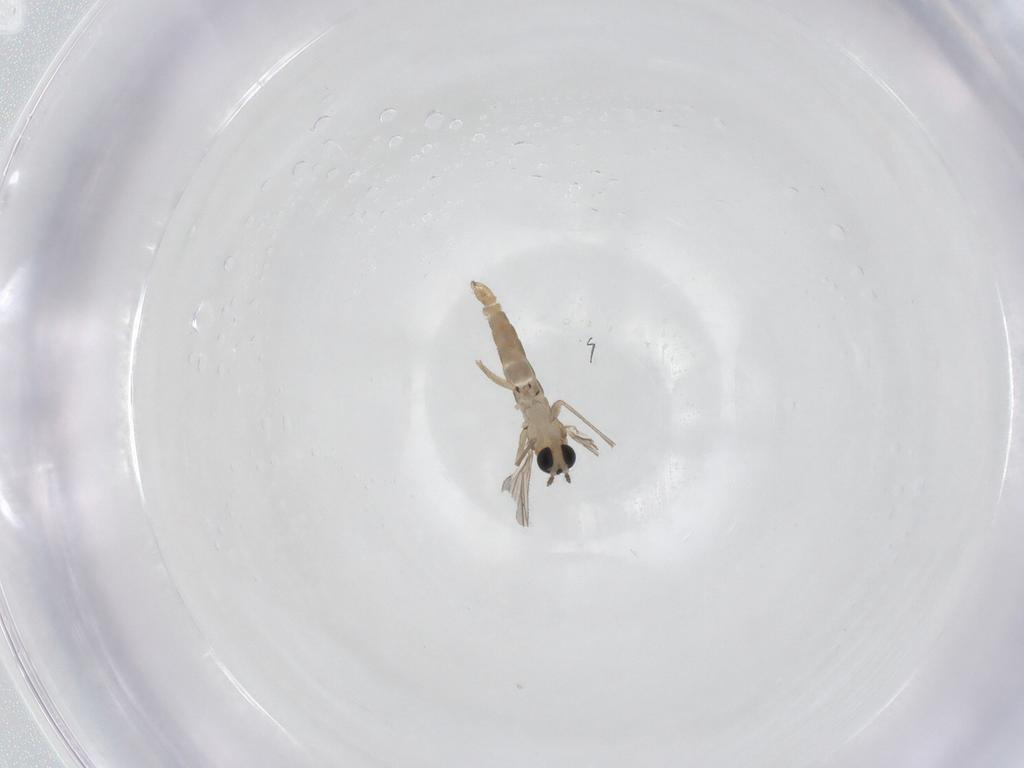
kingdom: Animalia
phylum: Arthropoda
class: Insecta
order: Diptera
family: Sciaridae
